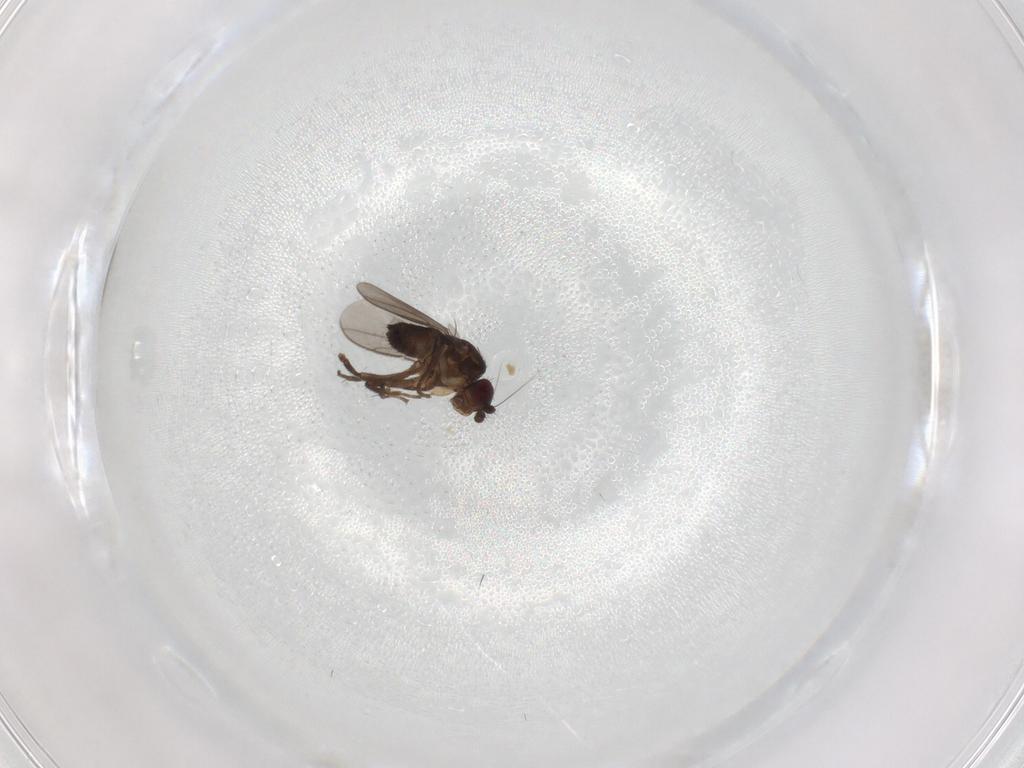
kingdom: Animalia
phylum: Arthropoda
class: Insecta
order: Diptera
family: Sphaeroceridae
